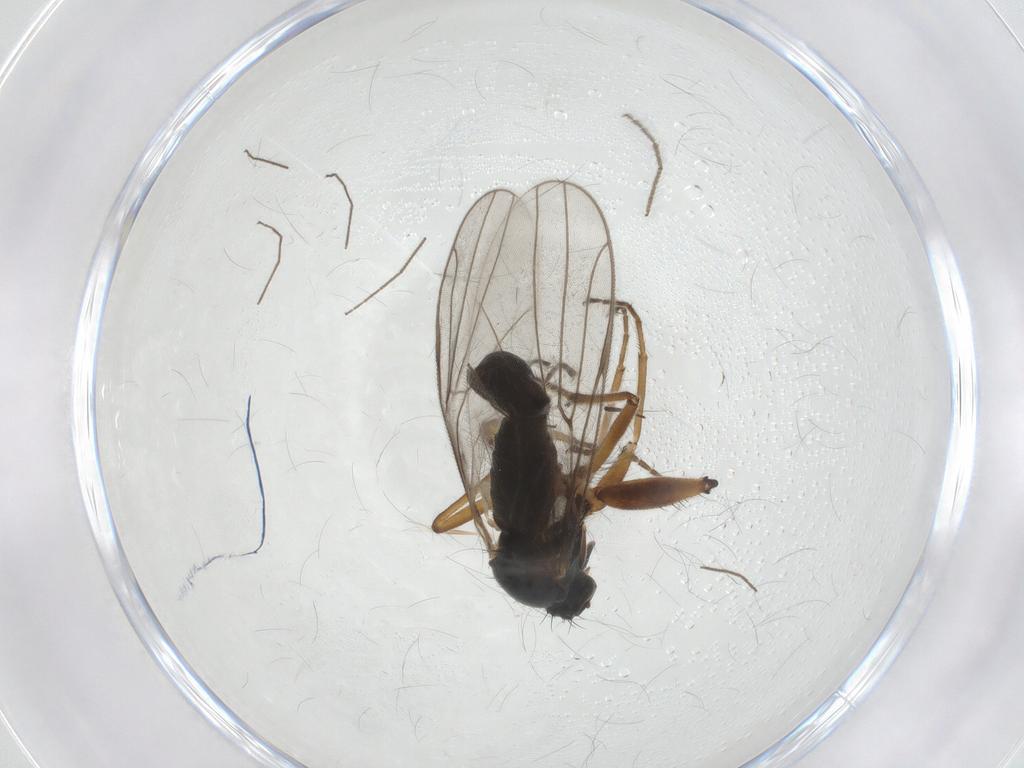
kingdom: Animalia
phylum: Arthropoda
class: Insecta
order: Diptera
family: Hybotidae
